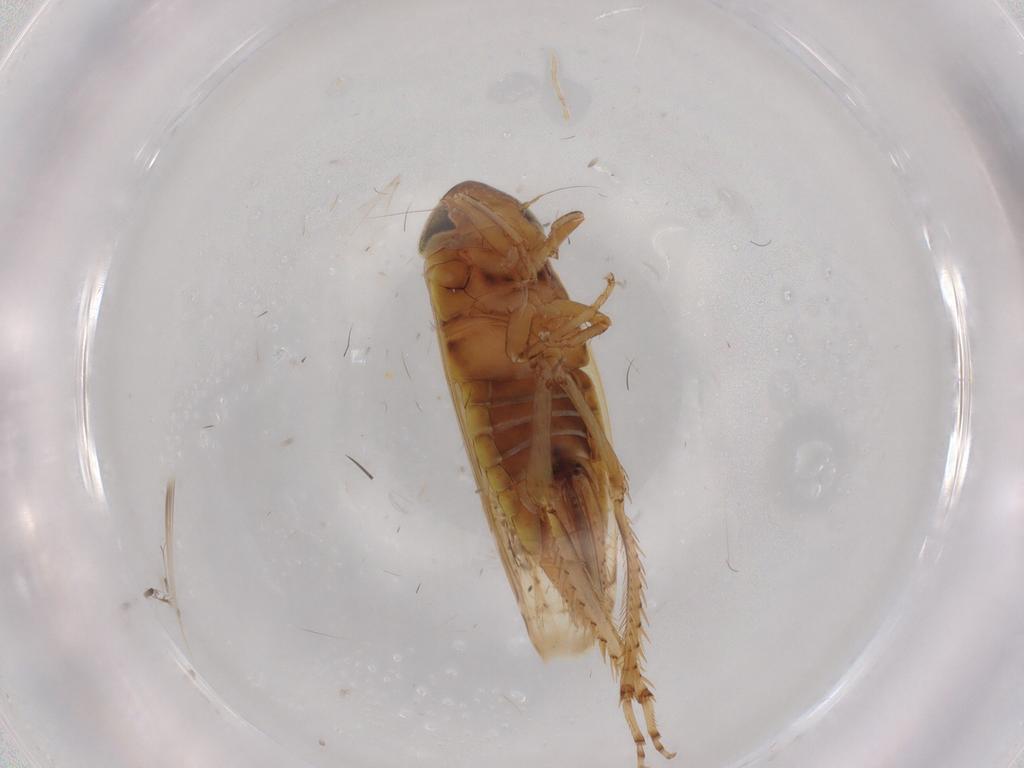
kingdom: Animalia
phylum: Arthropoda
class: Insecta
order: Hemiptera
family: Cicadellidae
